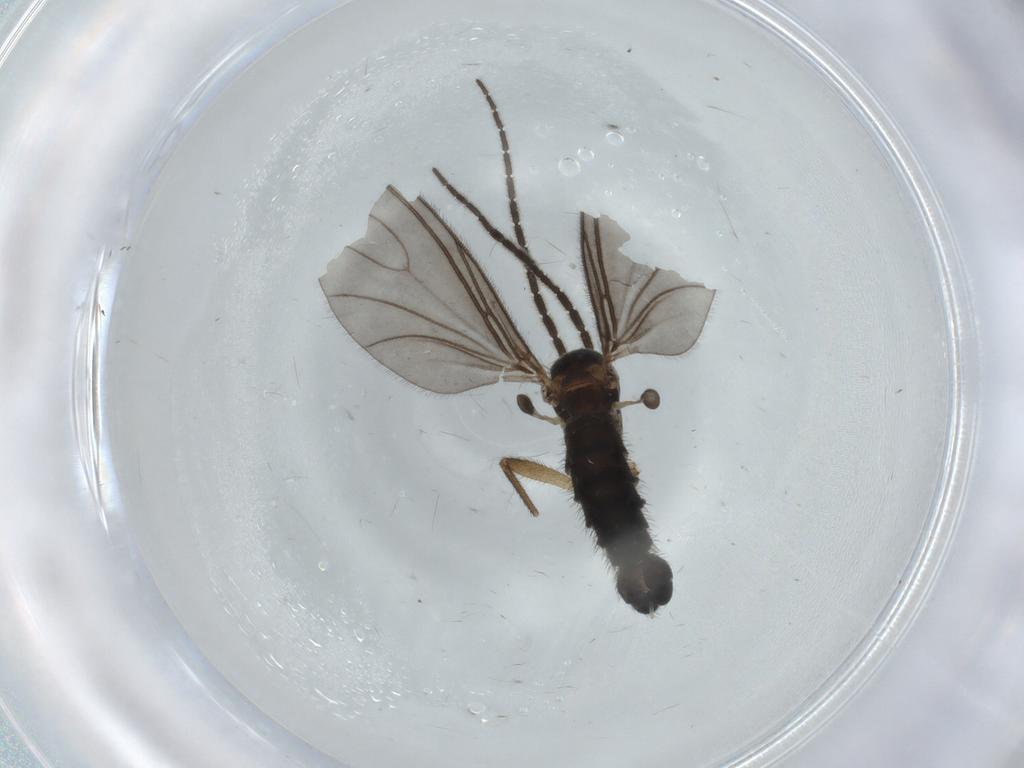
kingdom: Animalia
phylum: Arthropoda
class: Insecta
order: Diptera
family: Sciaridae
